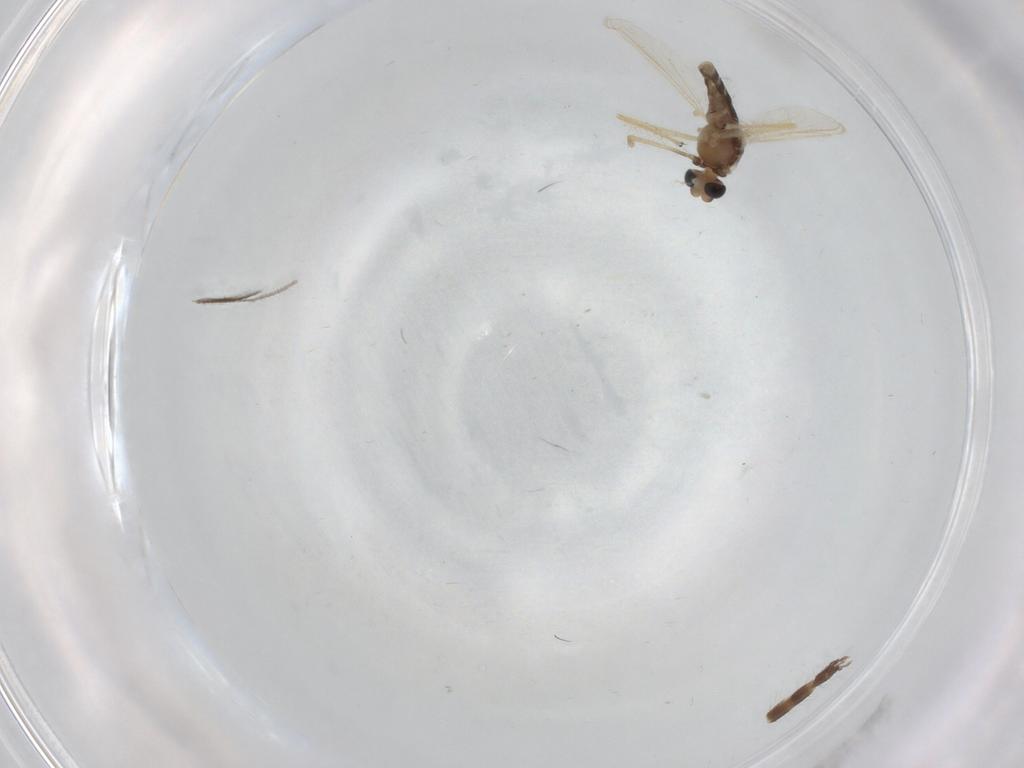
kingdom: Animalia
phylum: Arthropoda
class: Insecta
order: Diptera
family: Chironomidae
